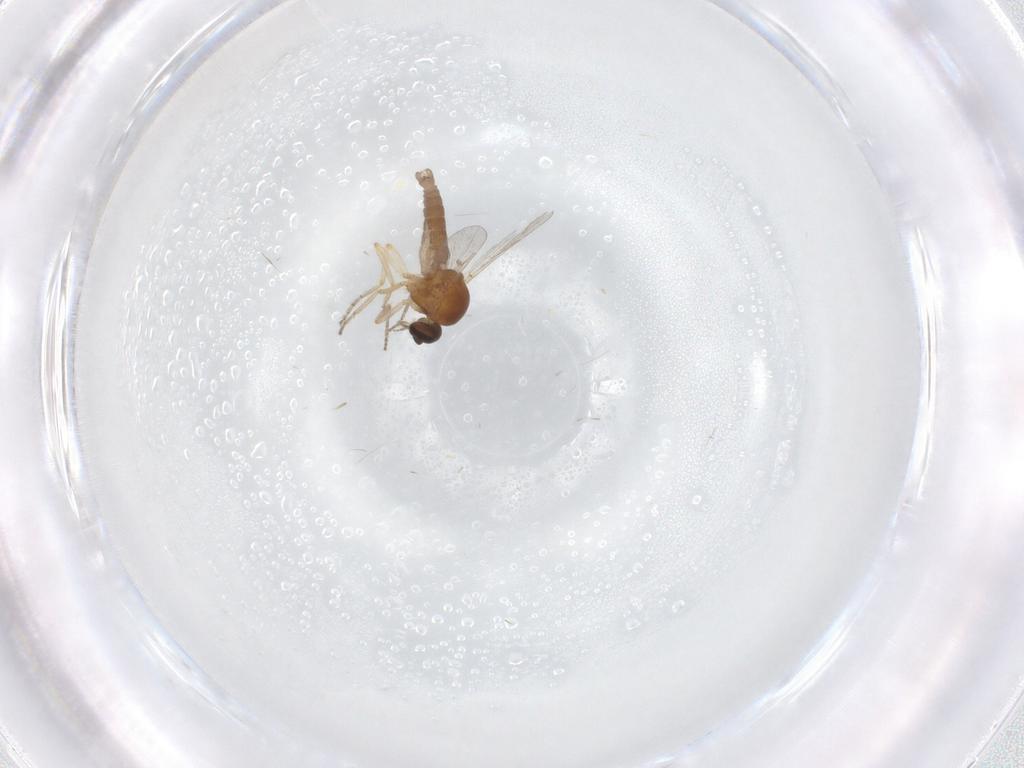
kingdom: Animalia
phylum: Arthropoda
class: Insecta
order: Diptera
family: Ceratopogonidae
